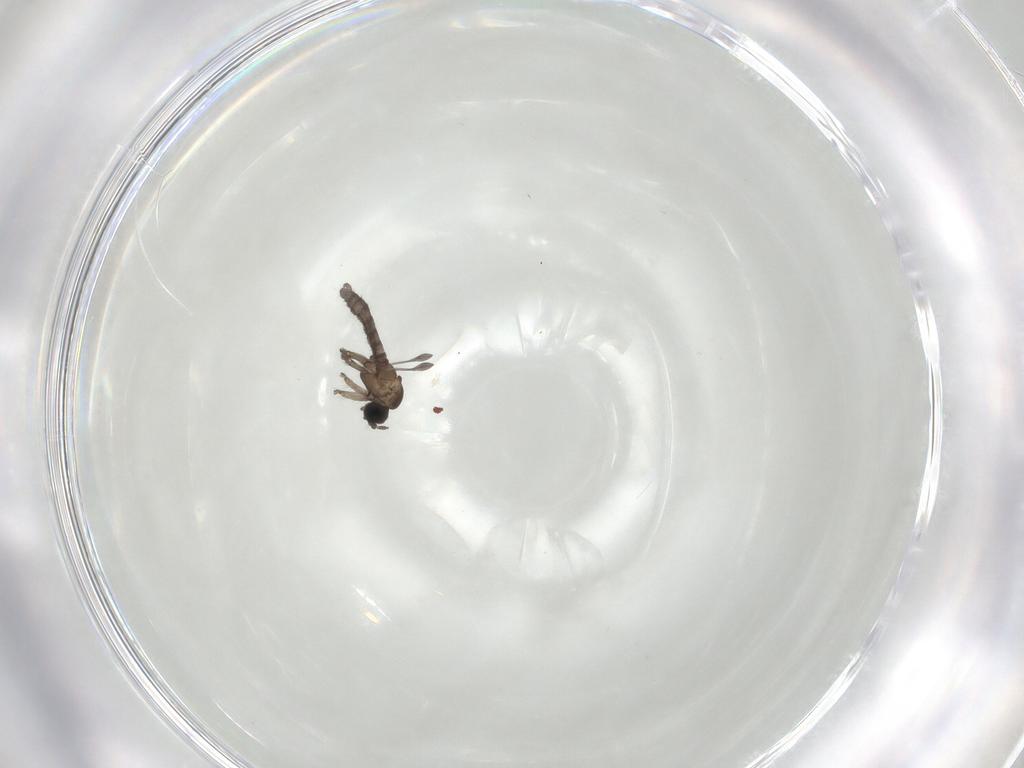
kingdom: Animalia
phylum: Arthropoda
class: Insecta
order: Diptera
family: Sciaridae
